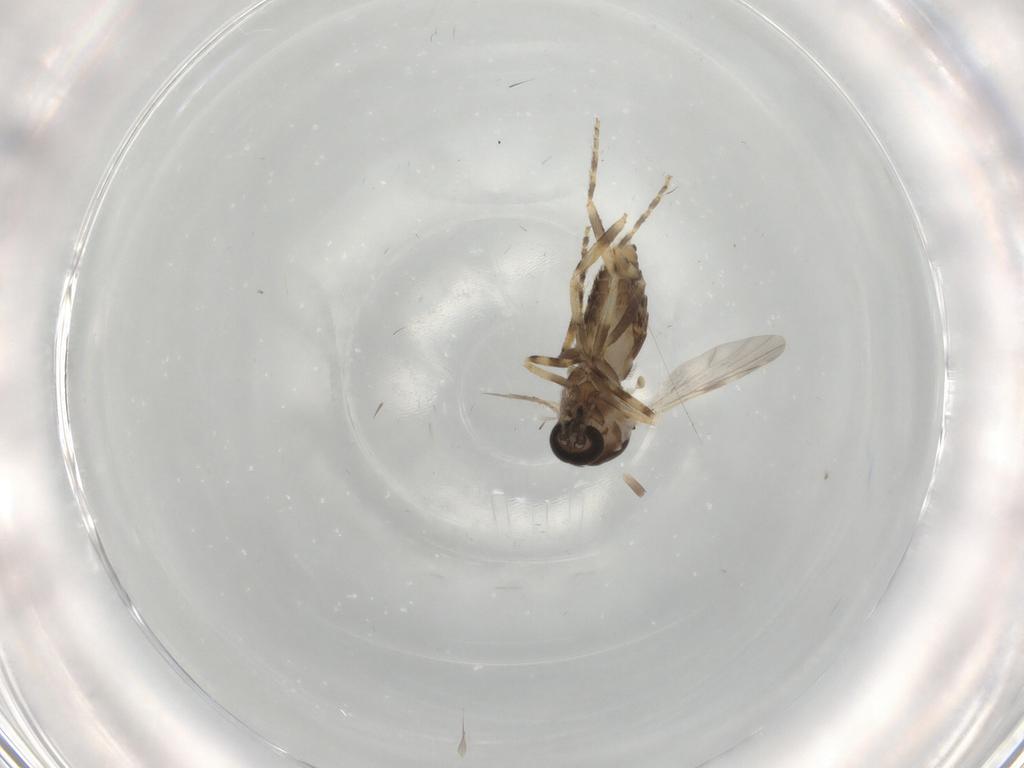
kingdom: Animalia
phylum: Arthropoda
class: Insecta
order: Diptera
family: Ceratopogonidae
